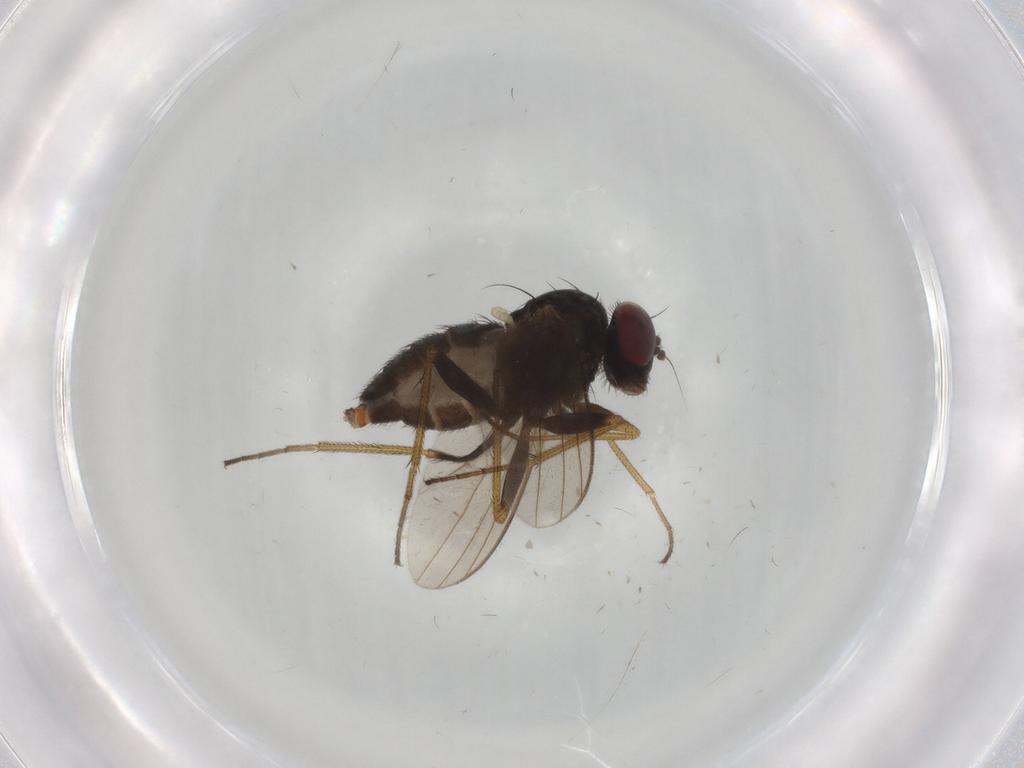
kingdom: Animalia
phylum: Arthropoda
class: Insecta
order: Diptera
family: Dolichopodidae
